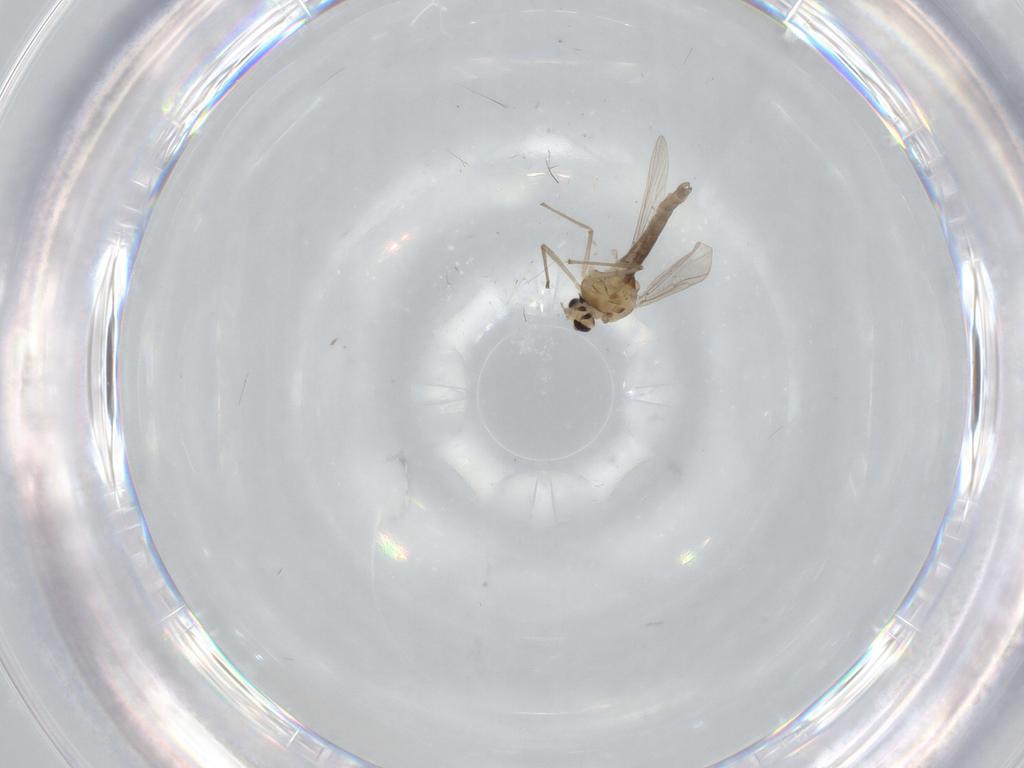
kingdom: Animalia
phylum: Arthropoda
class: Insecta
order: Diptera
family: Chironomidae
